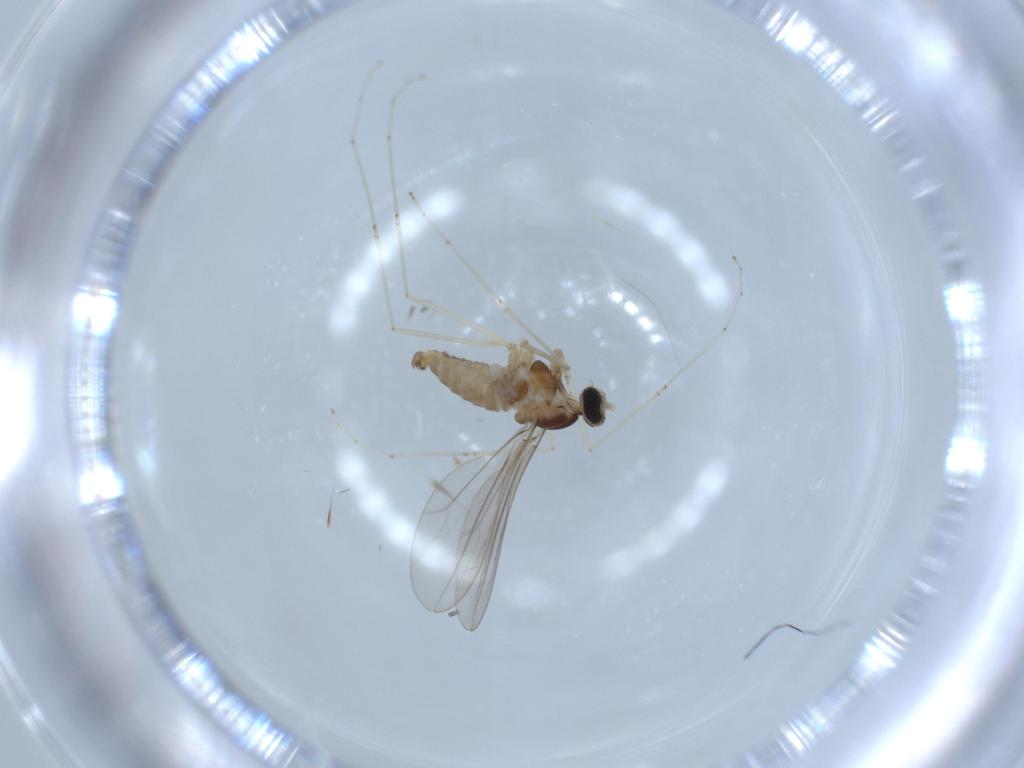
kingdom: Animalia
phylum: Arthropoda
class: Insecta
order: Diptera
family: Cecidomyiidae
